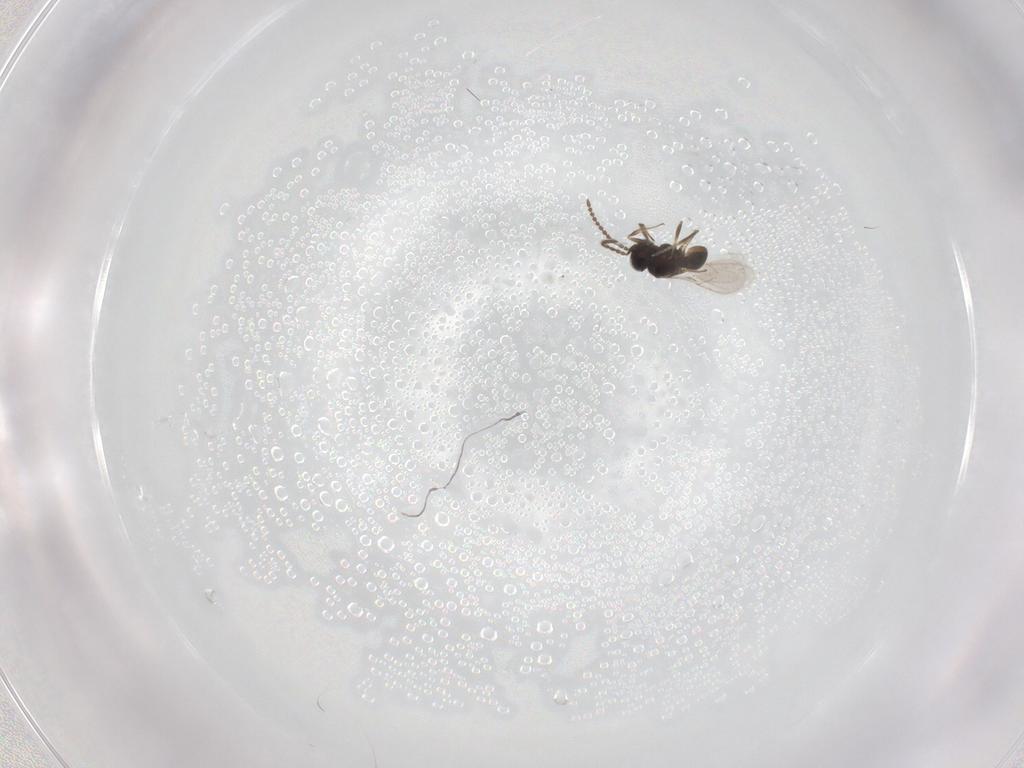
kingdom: Animalia
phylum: Arthropoda
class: Insecta
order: Hymenoptera
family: Scelionidae
